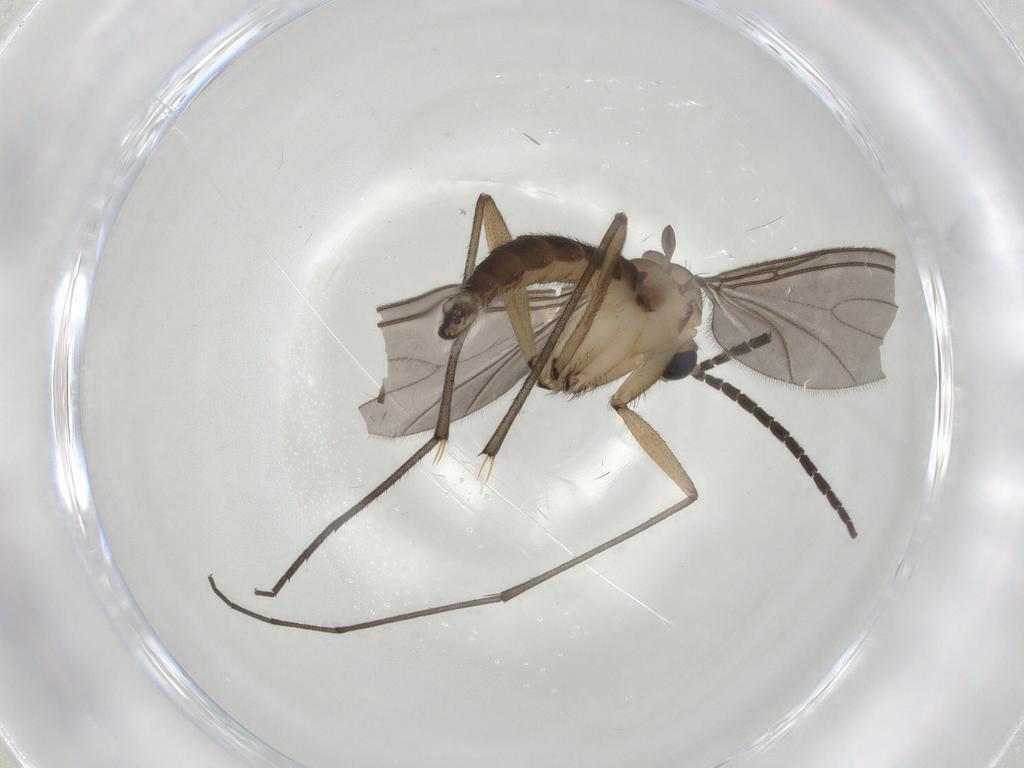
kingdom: Animalia
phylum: Arthropoda
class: Insecta
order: Diptera
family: Sciaridae
